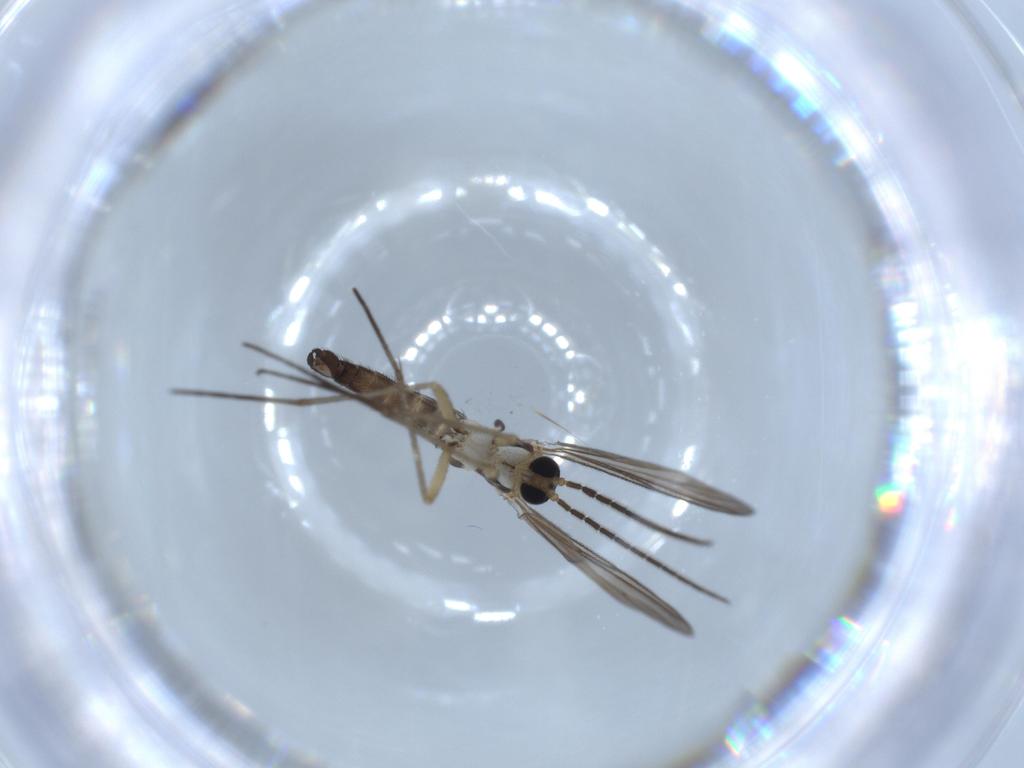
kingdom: Animalia
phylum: Arthropoda
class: Insecta
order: Diptera
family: Sciaridae
